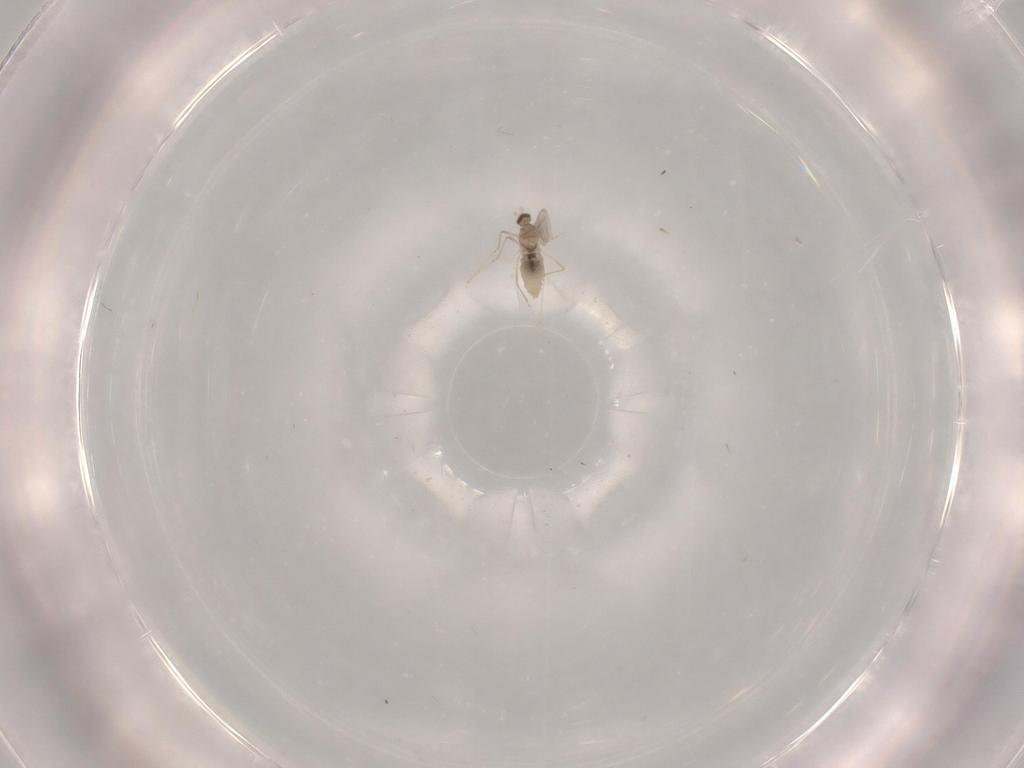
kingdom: Animalia
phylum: Arthropoda
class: Insecta
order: Diptera
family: Cecidomyiidae
